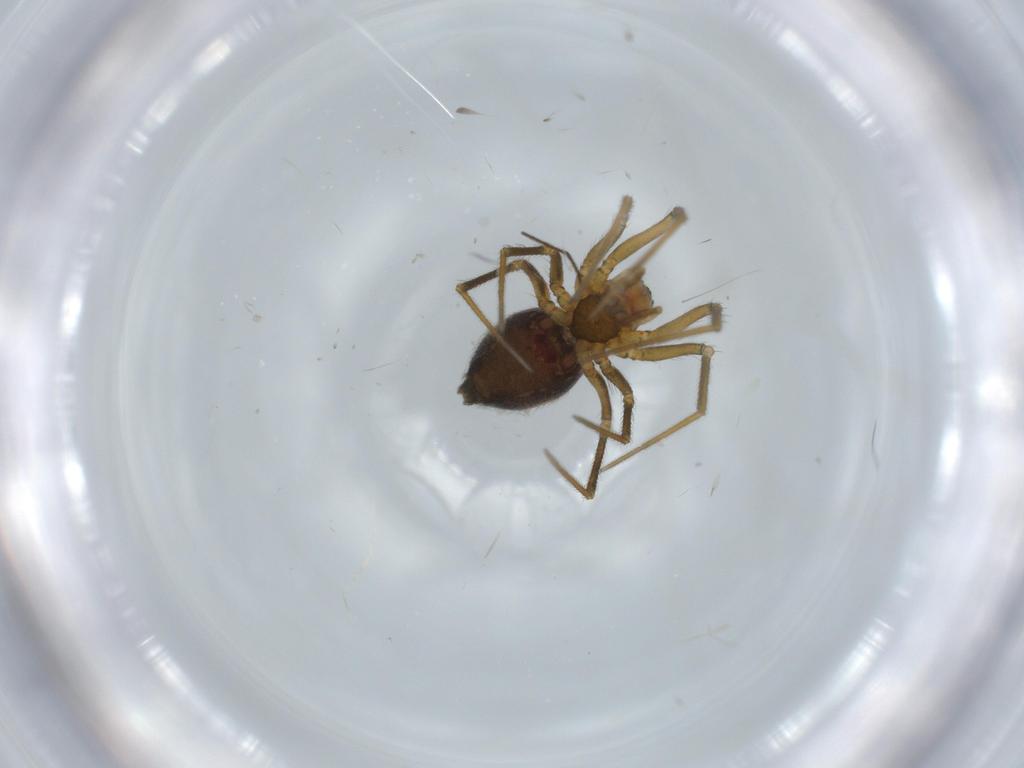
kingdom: Animalia
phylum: Arthropoda
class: Arachnida
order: Araneae
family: Linyphiidae
